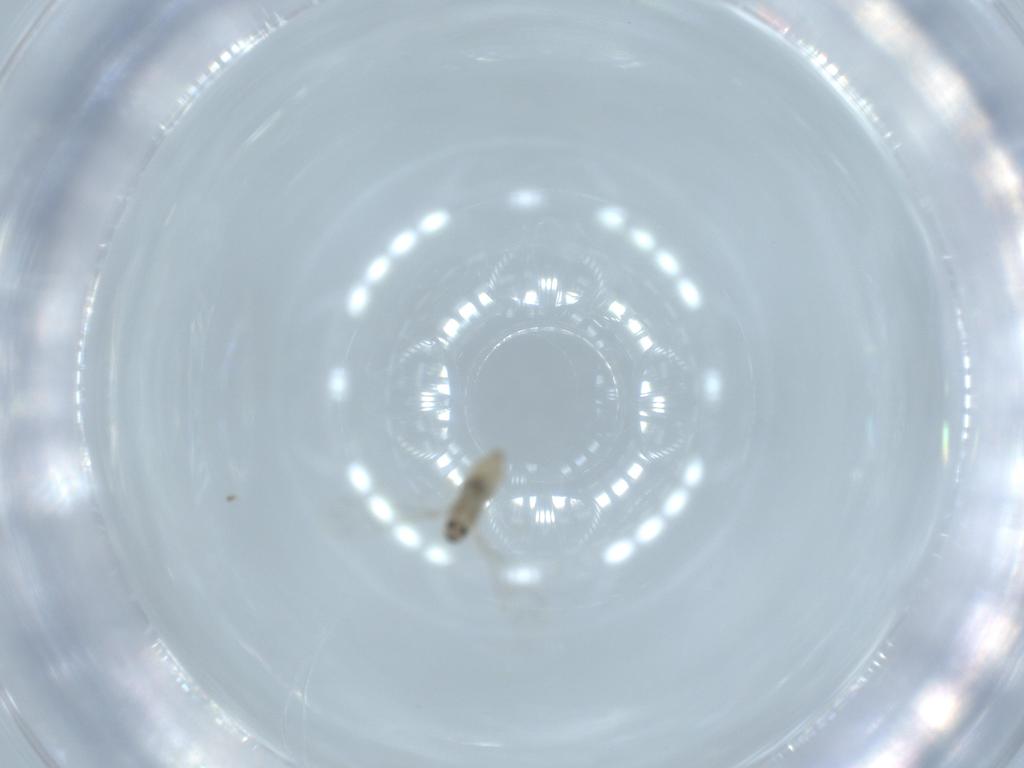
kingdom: Animalia
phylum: Arthropoda
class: Insecta
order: Diptera
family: Cecidomyiidae
